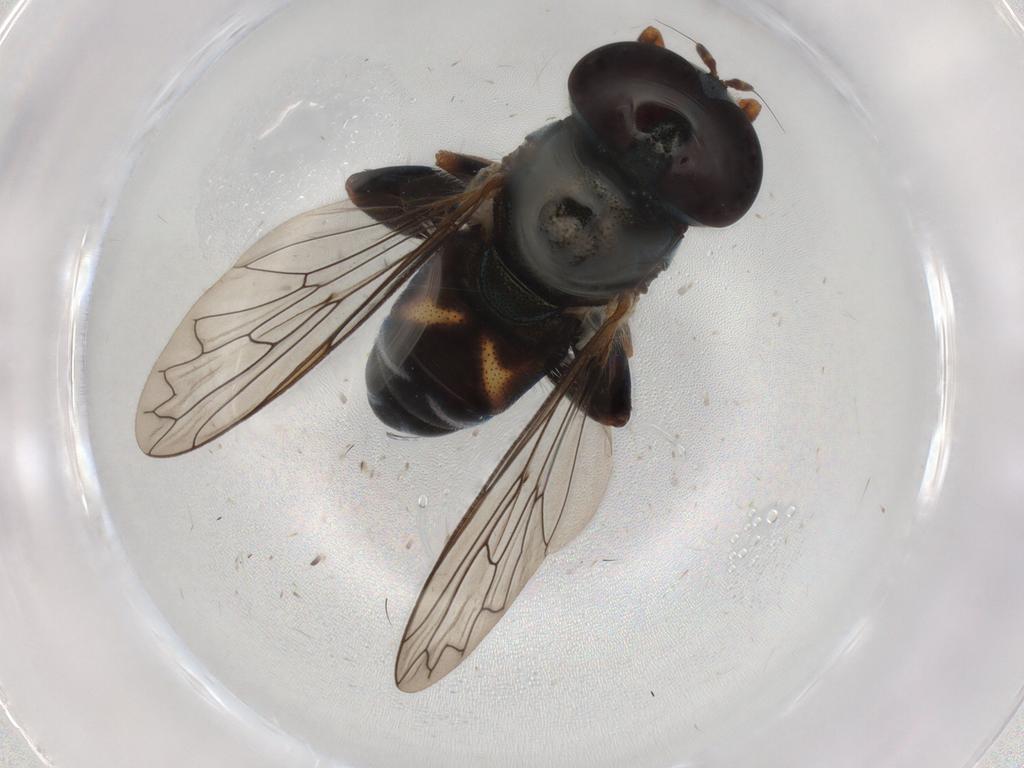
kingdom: Animalia
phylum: Arthropoda
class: Insecta
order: Diptera
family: Syrphidae
